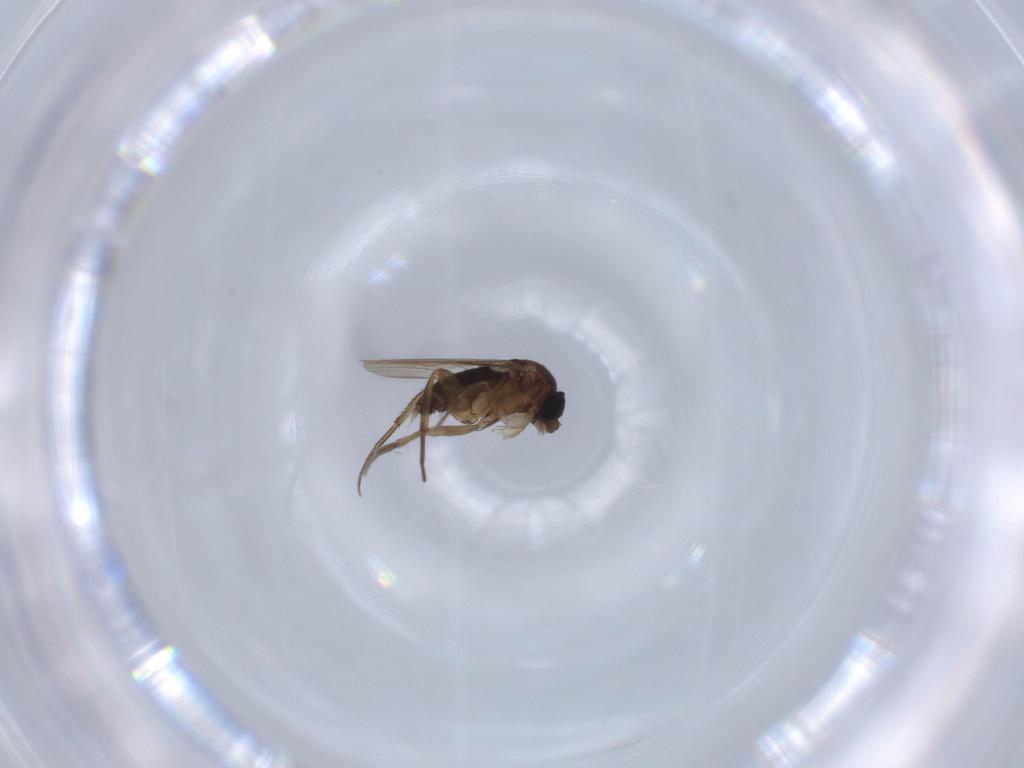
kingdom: Animalia
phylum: Arthropoda
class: Insecta
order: Diptera
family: Phoridae
